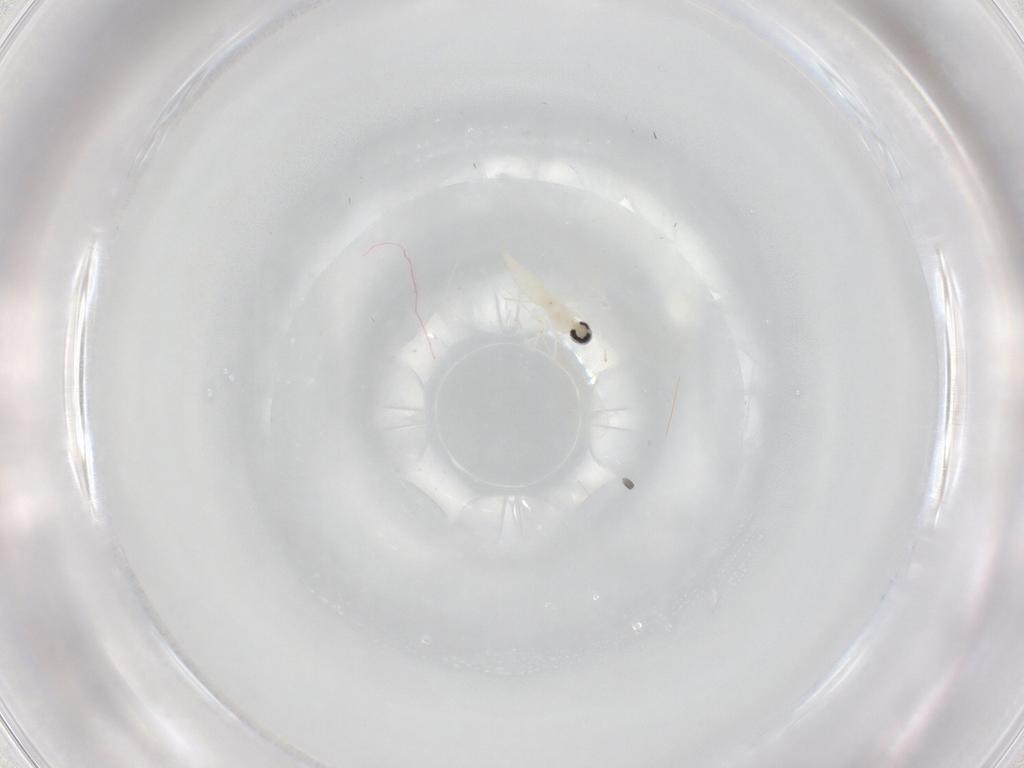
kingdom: Animalia
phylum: Arthropoda
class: Insecta
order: Diptera
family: Cecidomyiidae
